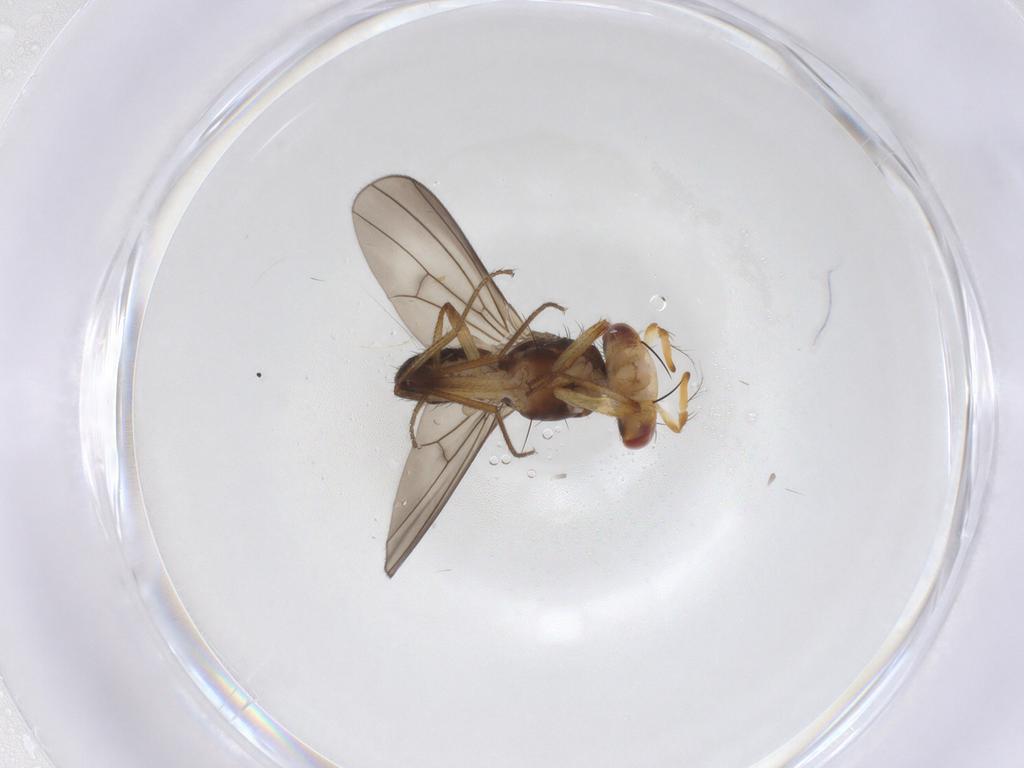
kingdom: Animalia
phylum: Arthropoda
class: Insecta
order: Diptera
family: Drosophilidae
